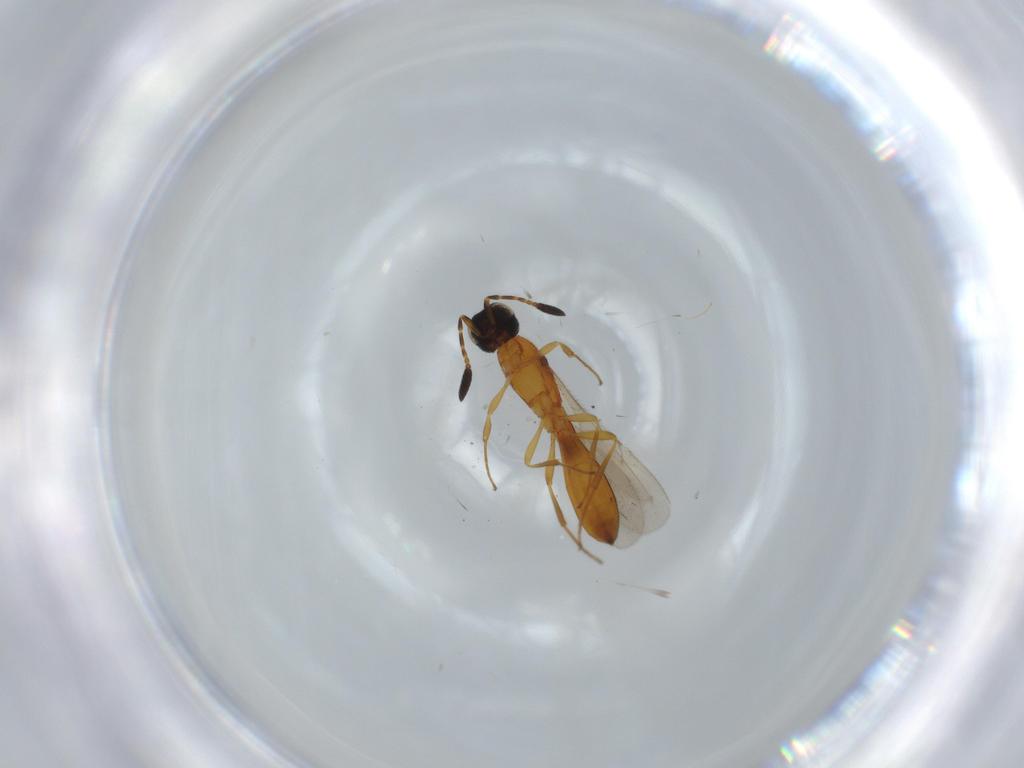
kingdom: Animalia
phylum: Arthropoda
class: Insecta
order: Hymenoptera
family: Scelionidae
